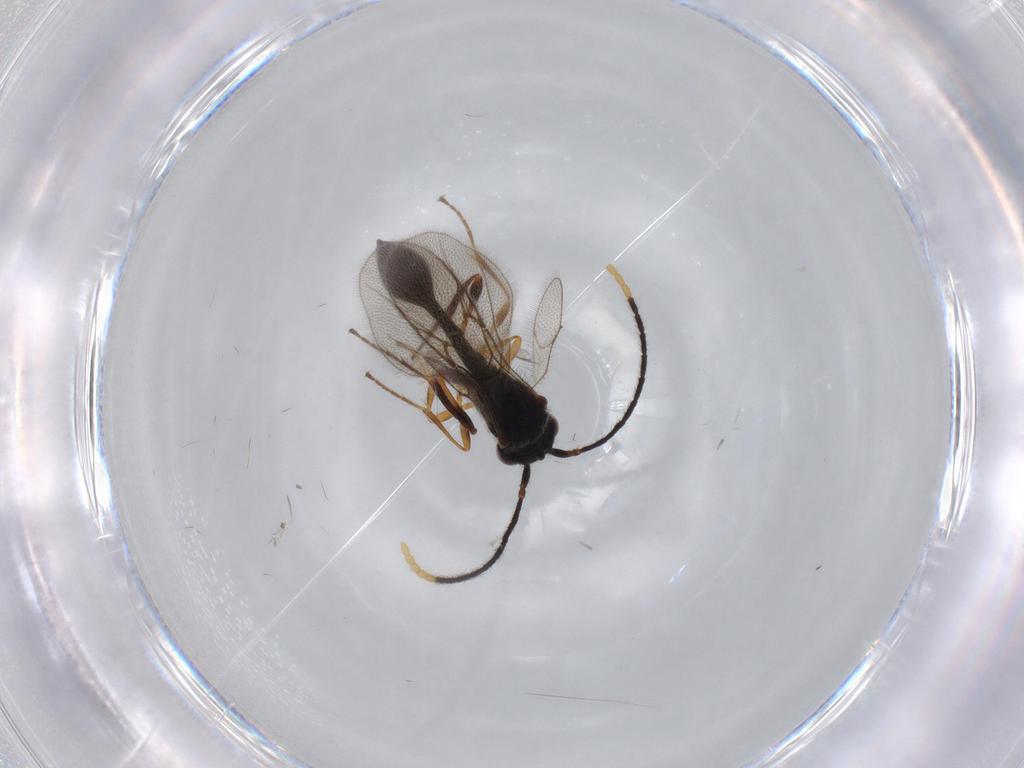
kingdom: Animalia
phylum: Arthropoda
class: Insecta
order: Hymenoptera
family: Diapriidae
